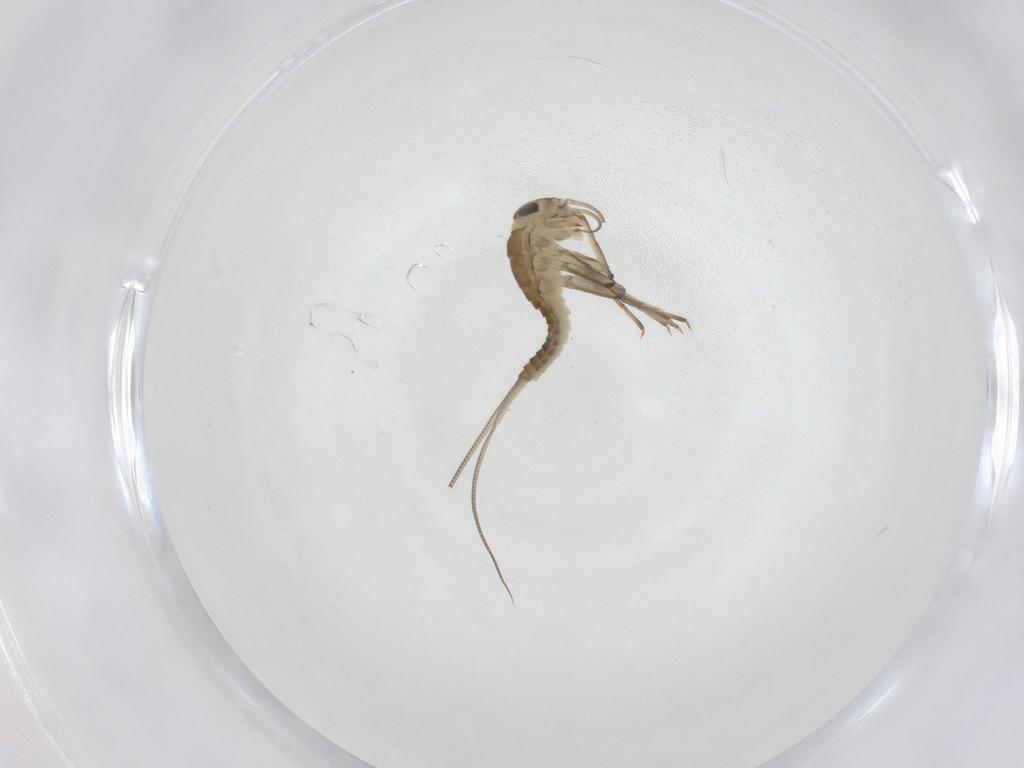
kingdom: Animalia
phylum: Arthropoda
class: Insecta
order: Ephemeroptera
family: Baetidae
